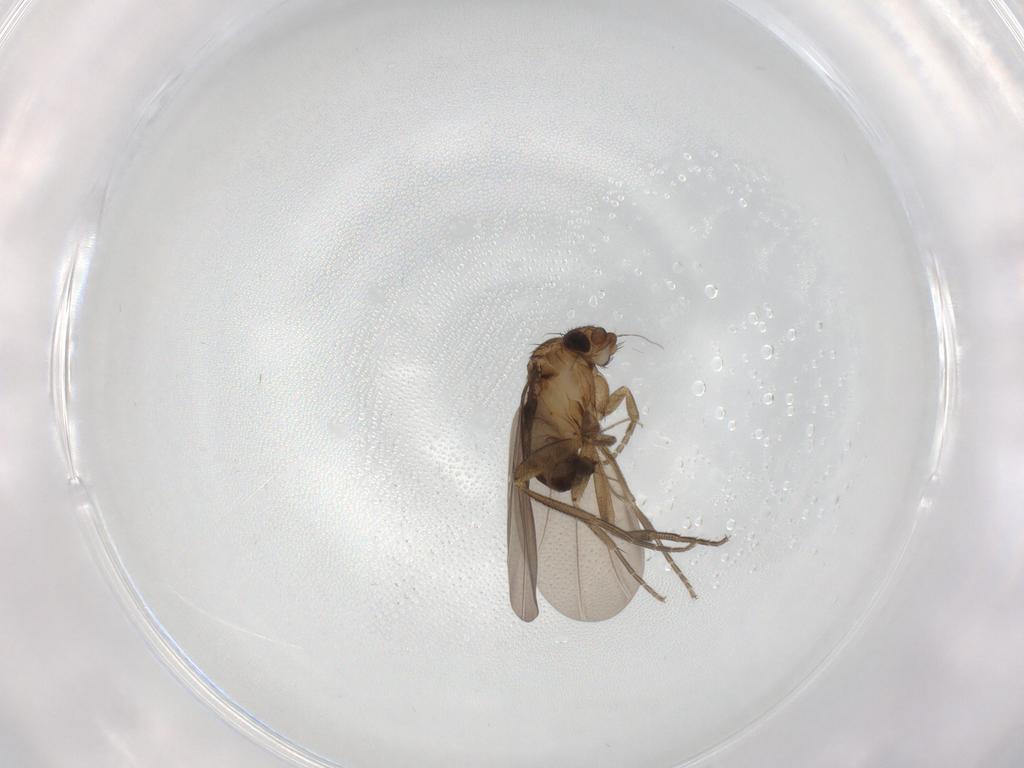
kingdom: Animalia
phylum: Arthropoda
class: Insecta
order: Diptera
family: Phoridae
